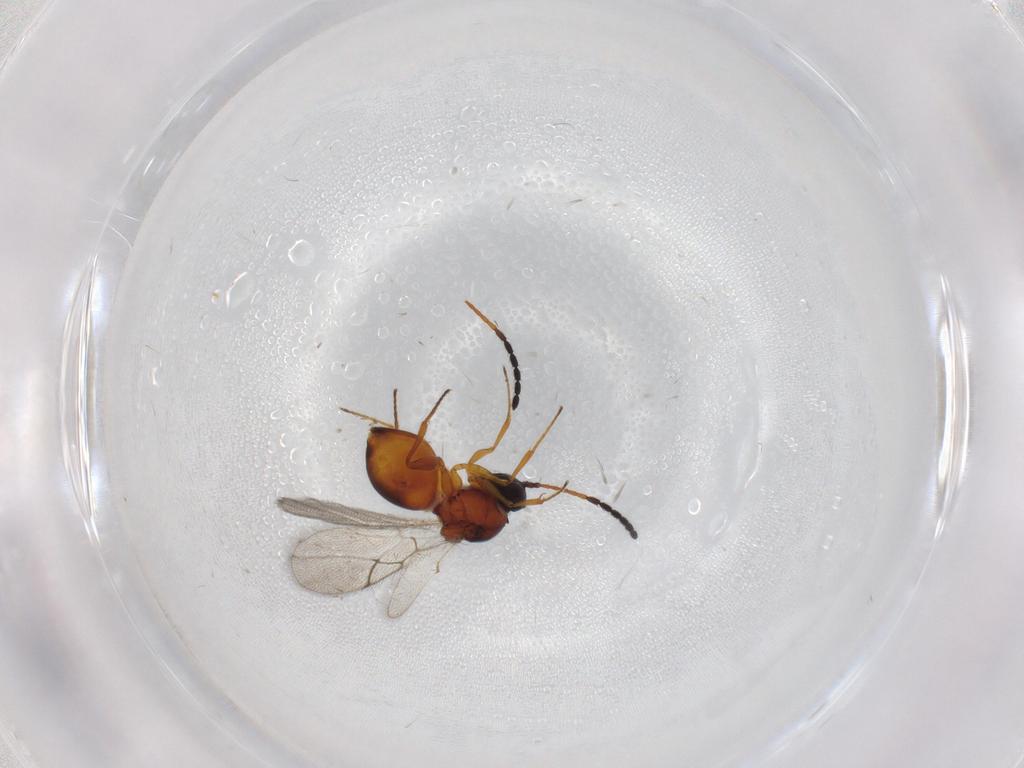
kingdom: Animalia
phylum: Arthropoda
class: Insecta
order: Hymenoptera
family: Figitidae
